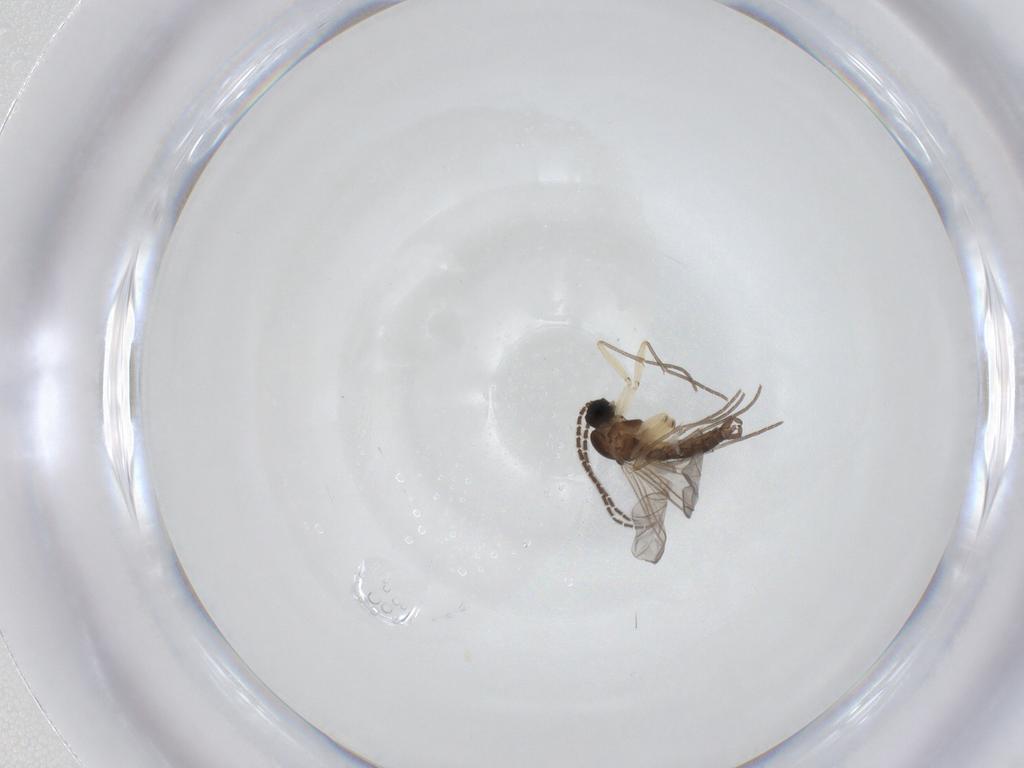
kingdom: Animalia
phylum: Arthropoda
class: Insecta
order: Diptera
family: Sciaridae
